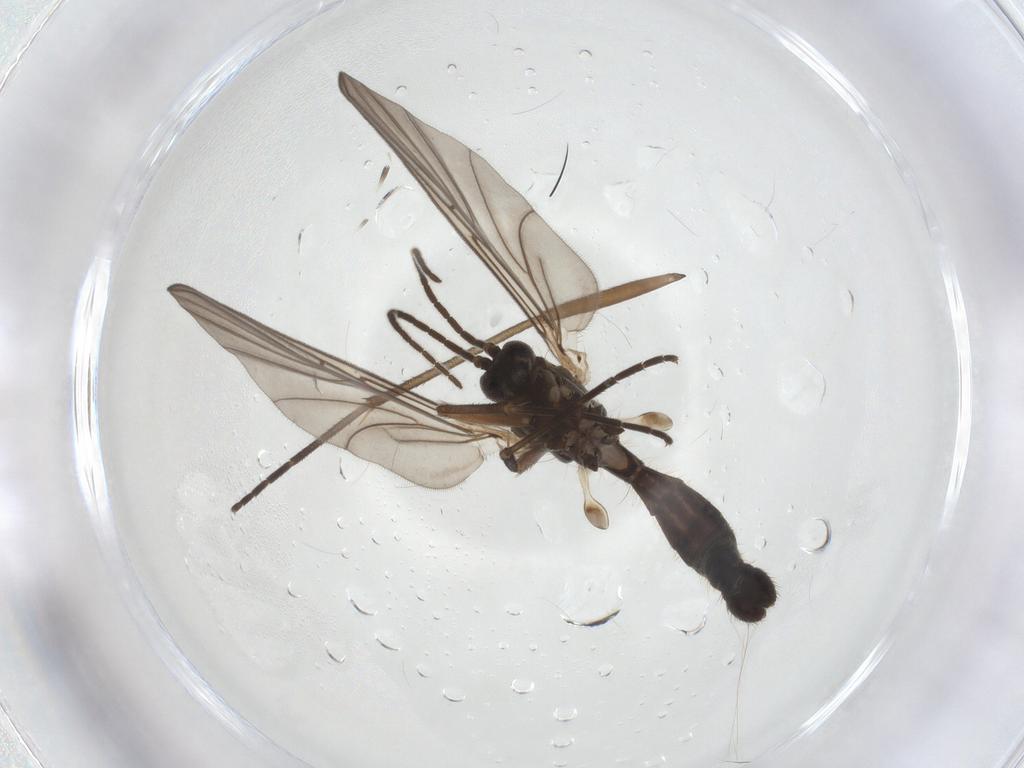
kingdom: Animalia
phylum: Arthropoda
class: Insecta
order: Diptera
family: Mycetophilidae
